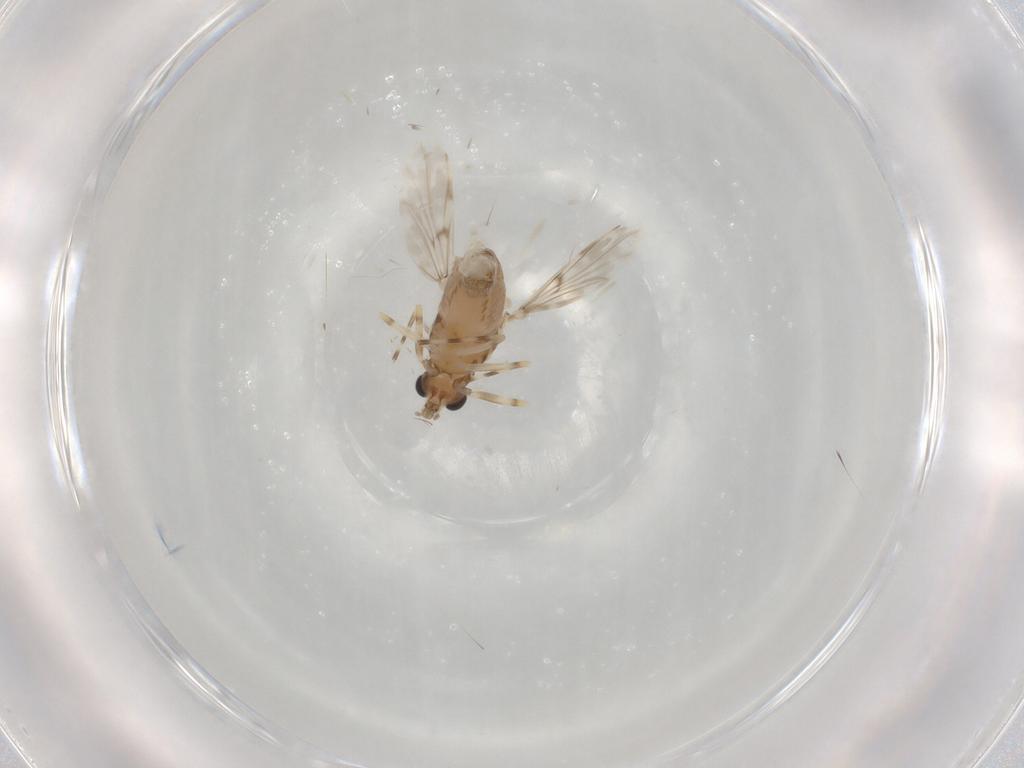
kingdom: Animalia
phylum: Arthropoda
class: Insecta
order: Diptera
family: Chironomidae
